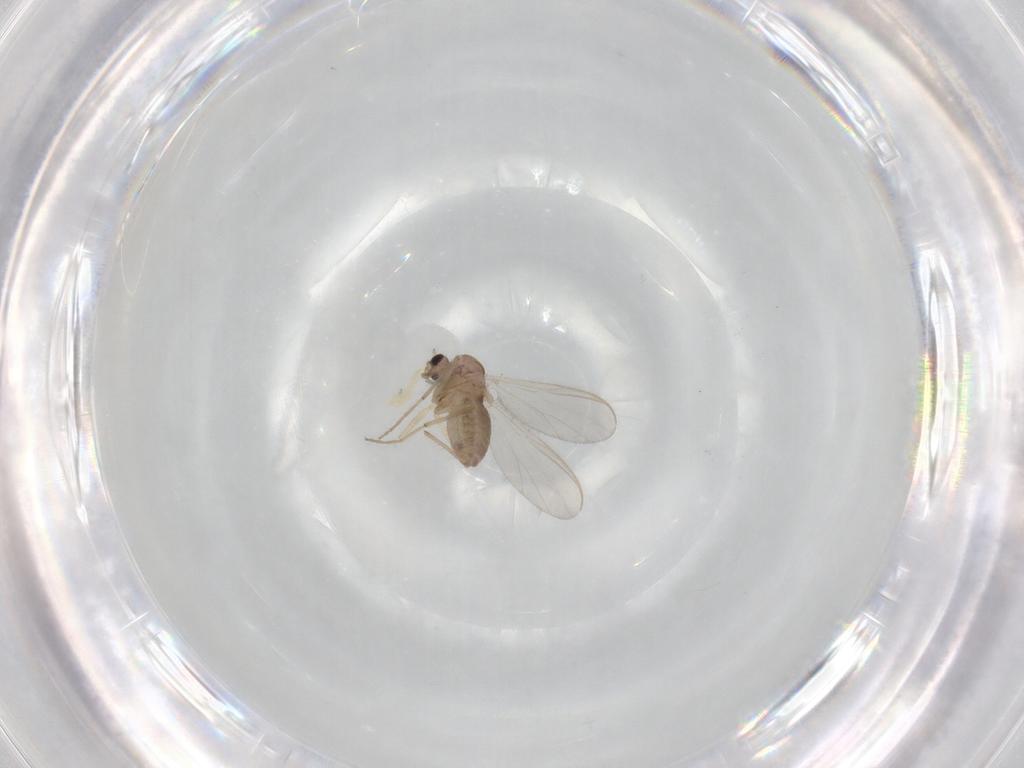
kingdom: Animalia
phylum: Arthropoda
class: Insecta
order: Diptera
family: Chironomidae
